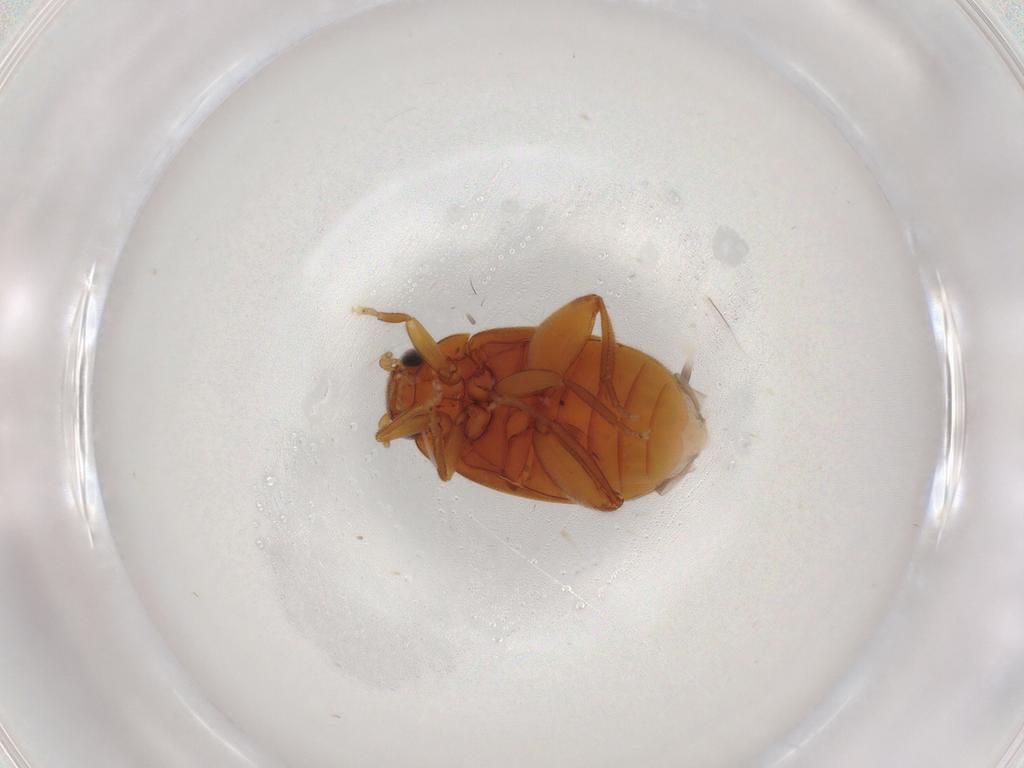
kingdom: Animalia
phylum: Arthropoda
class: Insecta
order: Coleoptera
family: Scirtidae
